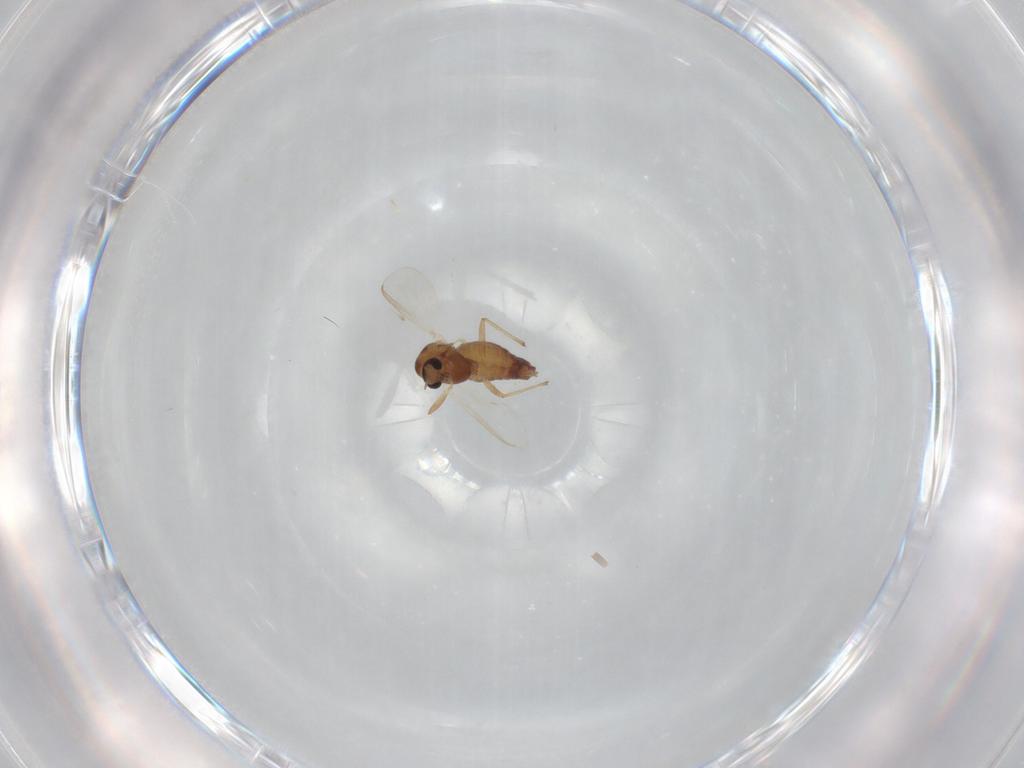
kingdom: Animalia
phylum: Arthropoda
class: Insecta
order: Diptera
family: Chironomidae
